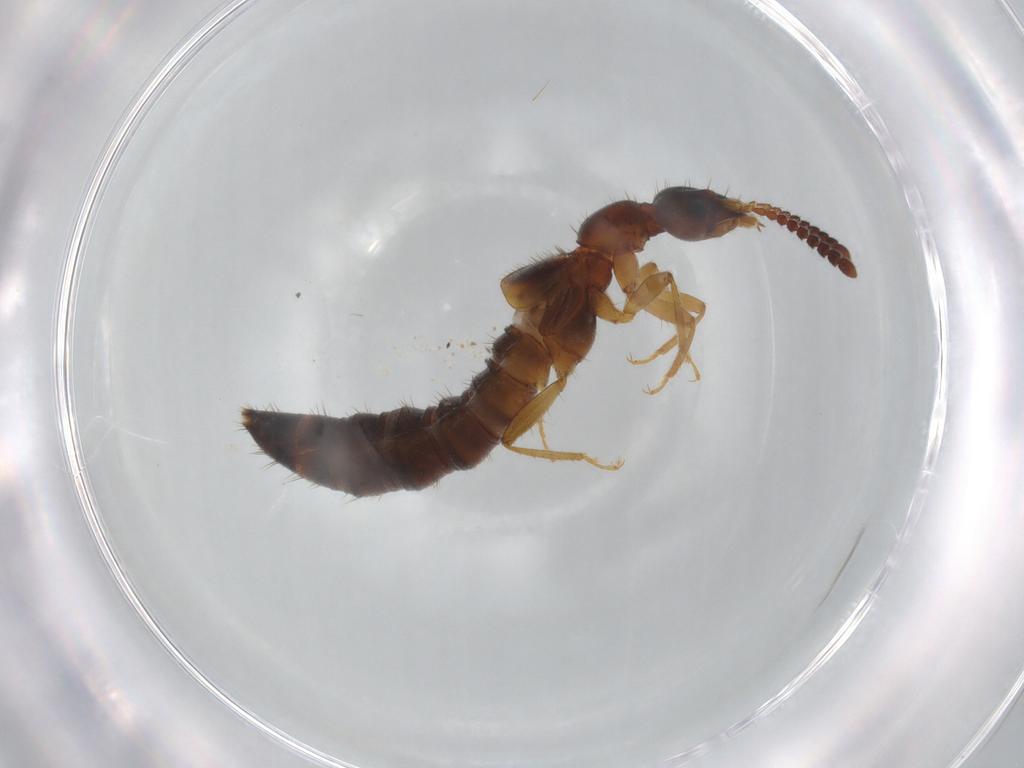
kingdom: Animalia
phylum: Arthropoda
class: Insecta
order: Coleoptera
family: Staphylinidae
